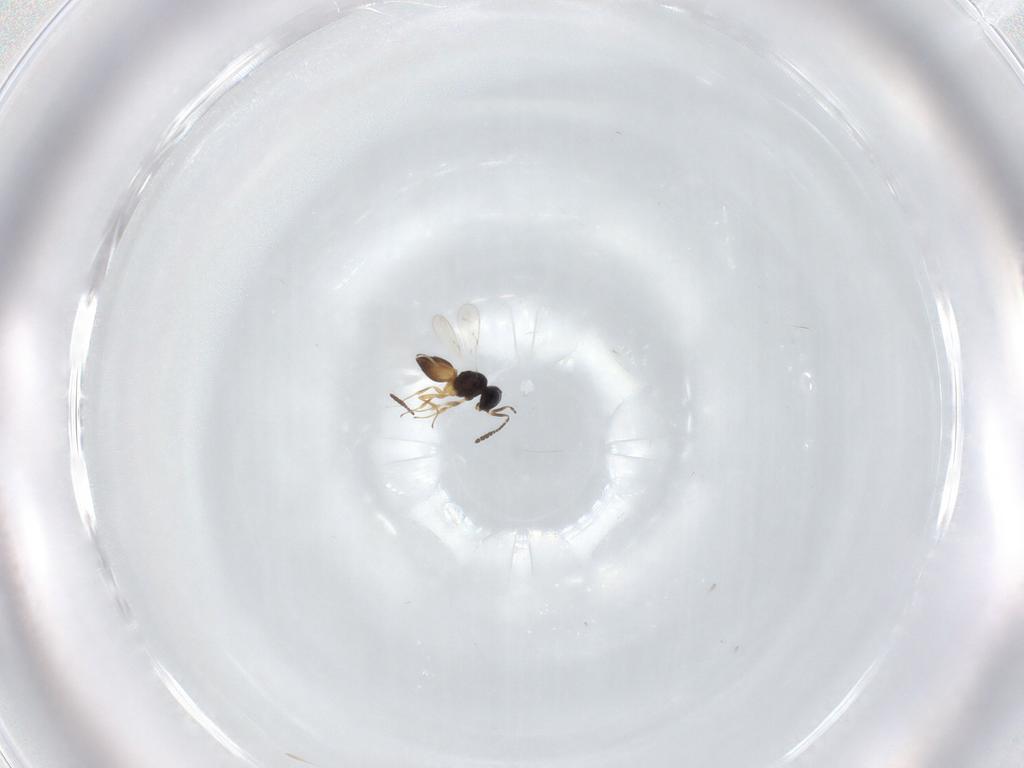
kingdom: Animalia
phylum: Arthropoda
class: Insecta
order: Hymenoptera
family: Scelionidae
